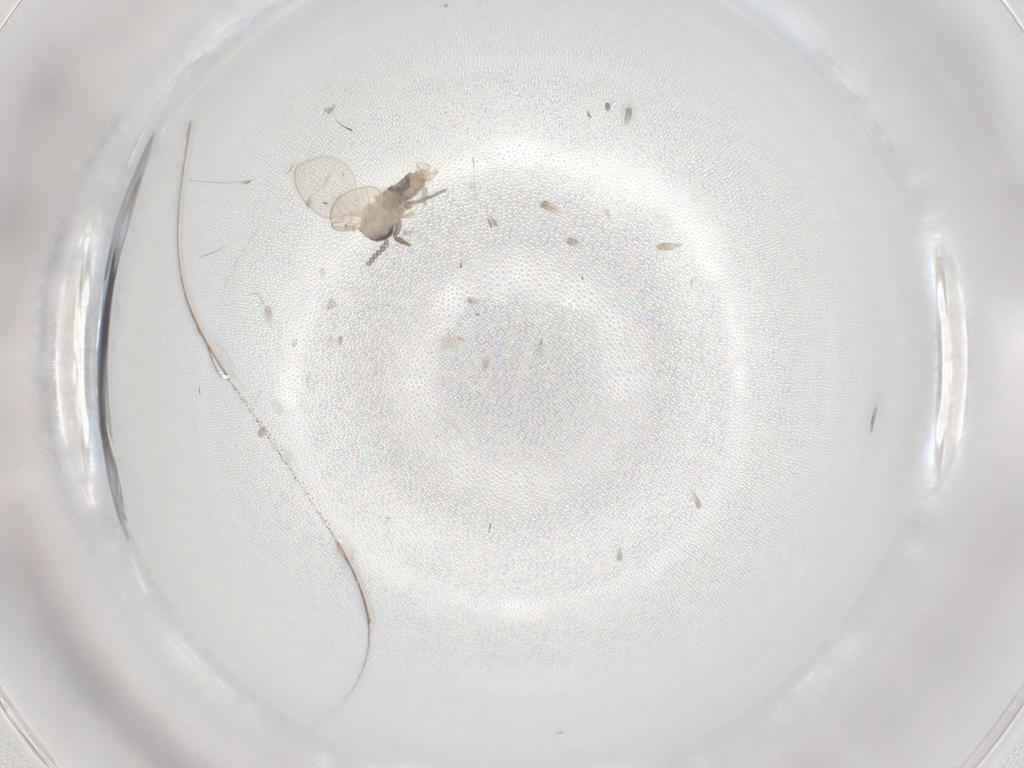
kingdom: Animalia
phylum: Arthropoda
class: Insecta
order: Diptera
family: Psychodidae
